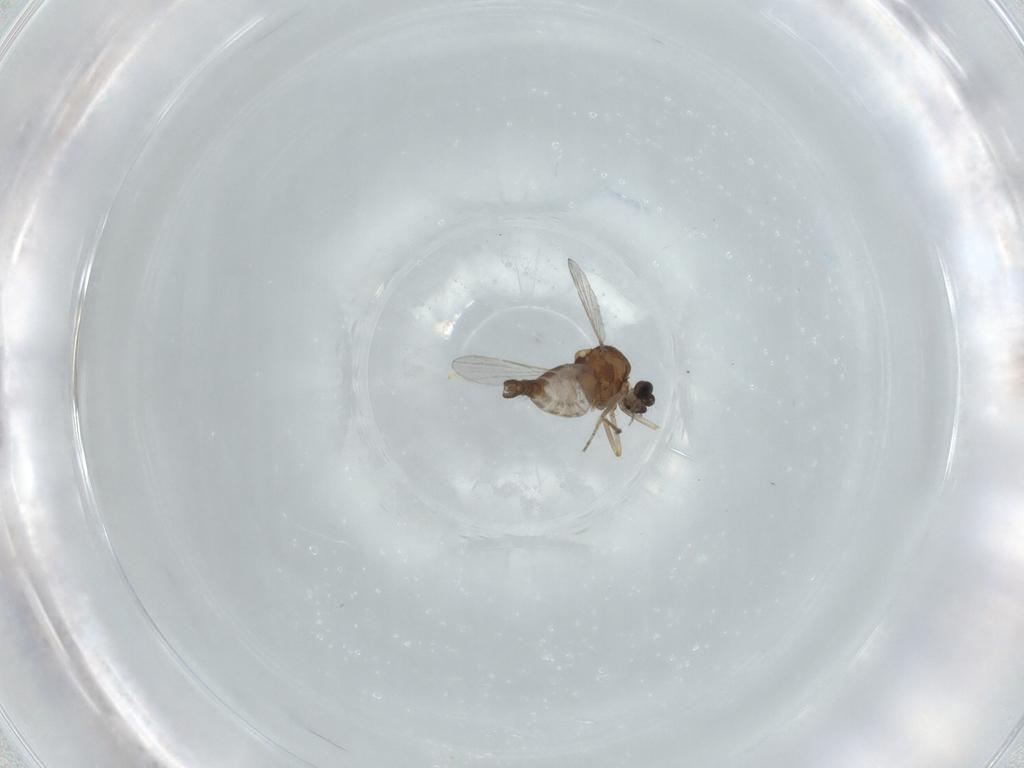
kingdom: Animalia
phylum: Arthropoda
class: Insecta
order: Diptera
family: Ceratopogonidae
